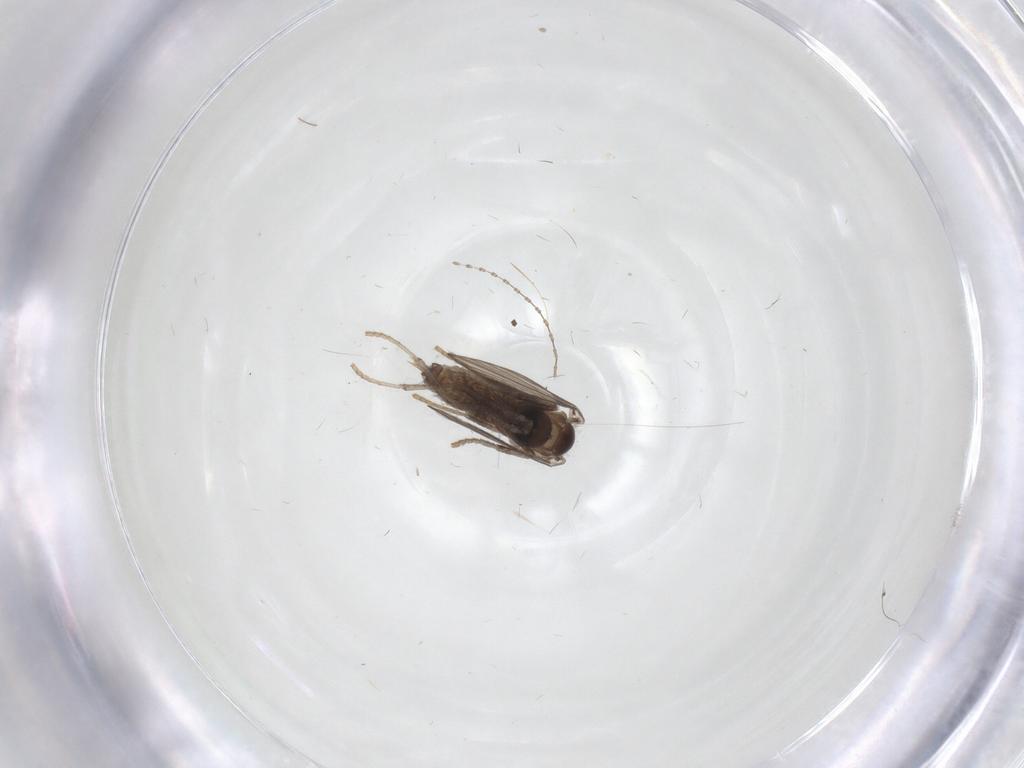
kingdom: Animalia
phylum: Arthropoda
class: Insecta
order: Diptera
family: Psychodidae
